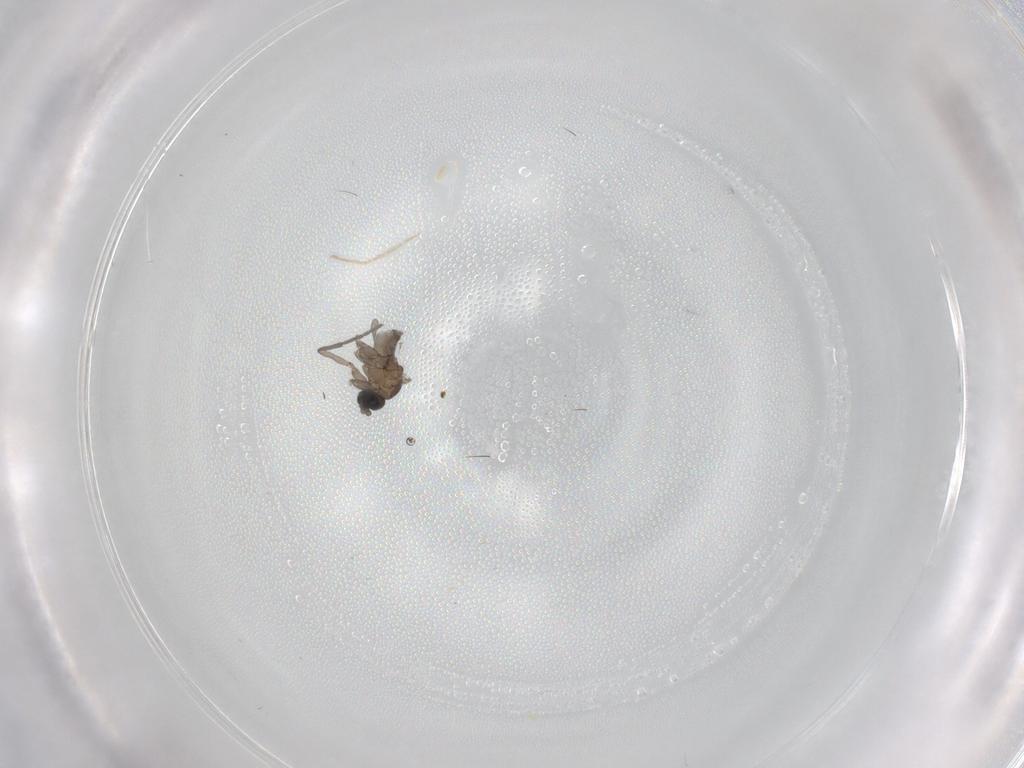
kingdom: Animalia
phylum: Arthropoda
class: Insecta
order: Diptera
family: Sciaridae
